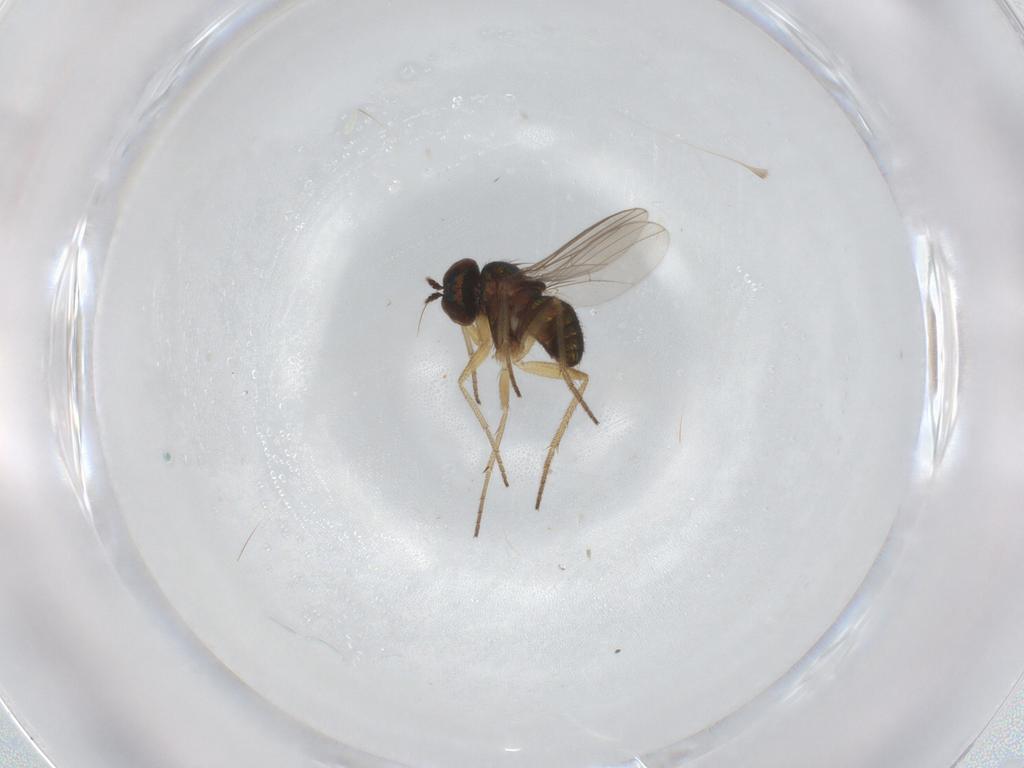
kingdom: Animalia
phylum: Arthropoda
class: Insecta
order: Diptera
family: Dolichopodidae
